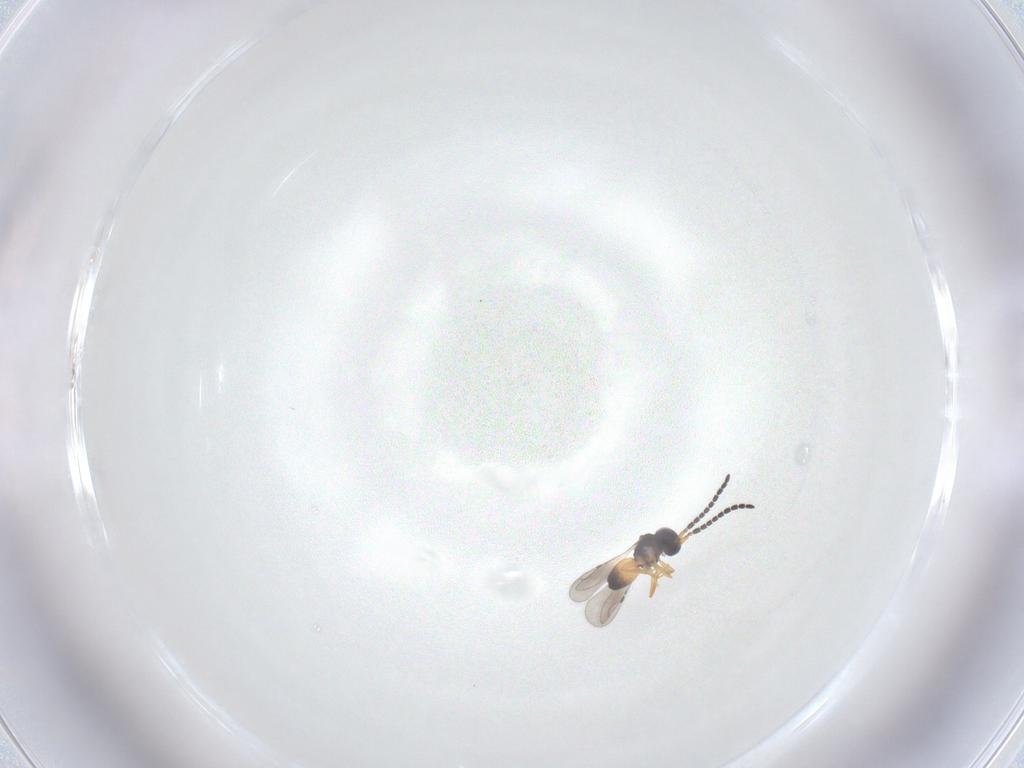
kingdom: Animalia
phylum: Arthropoda
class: Insecta
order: Hymenoptera
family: Ceraphronidae
